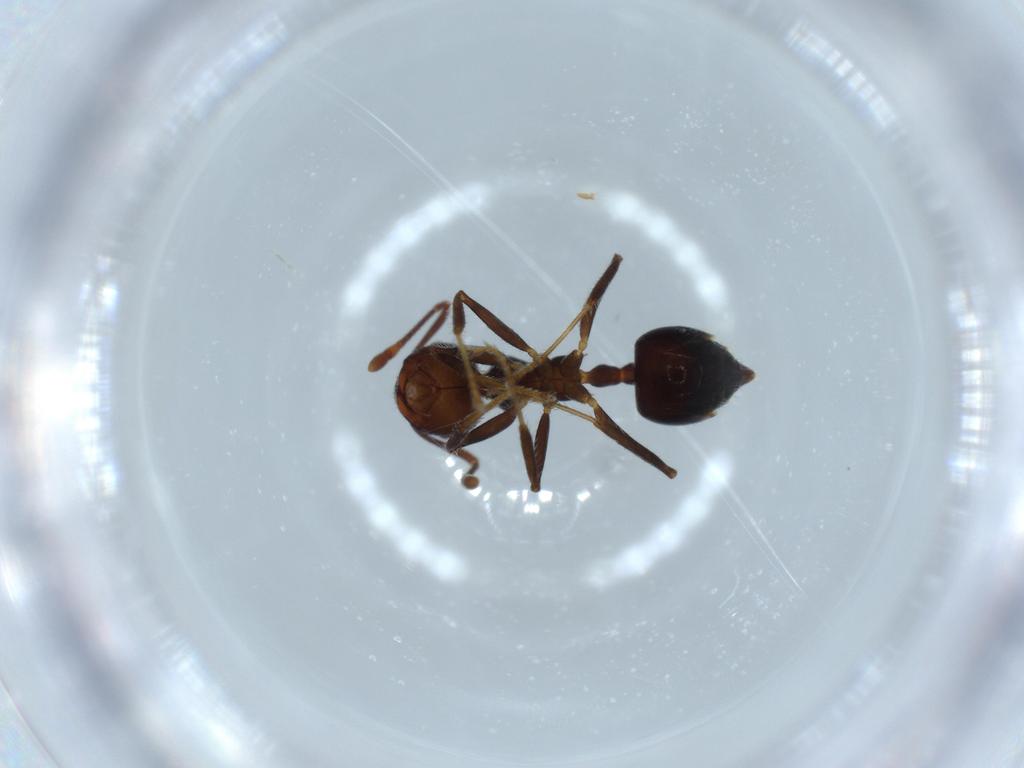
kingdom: Animalia
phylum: Arthropoda
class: Insecta
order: Hymenoptera
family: Formicidae
